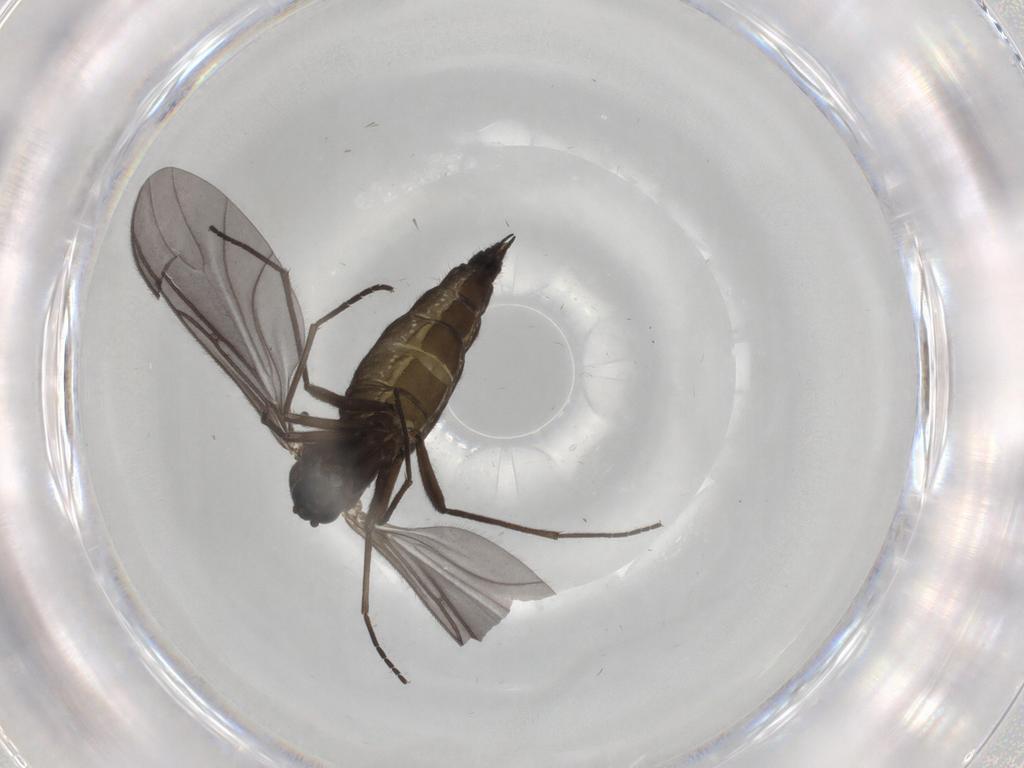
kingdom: Animalia
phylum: Arthropoda
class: Insecta
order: Diptera
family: Sciaridae
